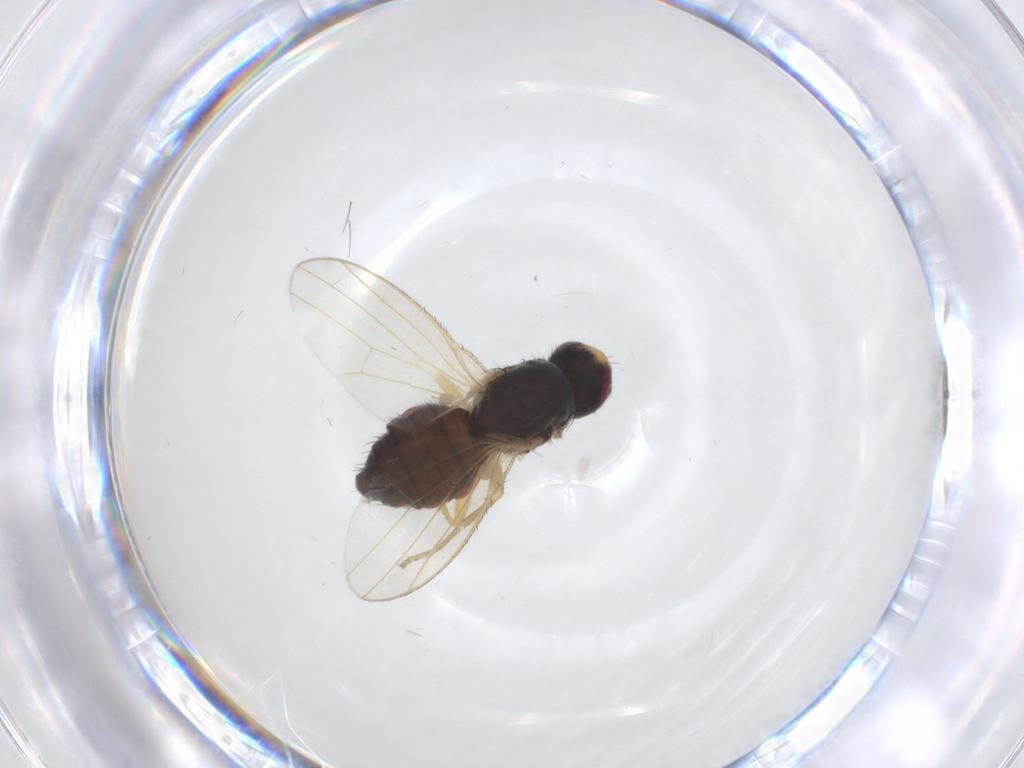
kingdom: Animalia
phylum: Arthropoda
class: Insecta
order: Diptera
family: Heleomyzidae
